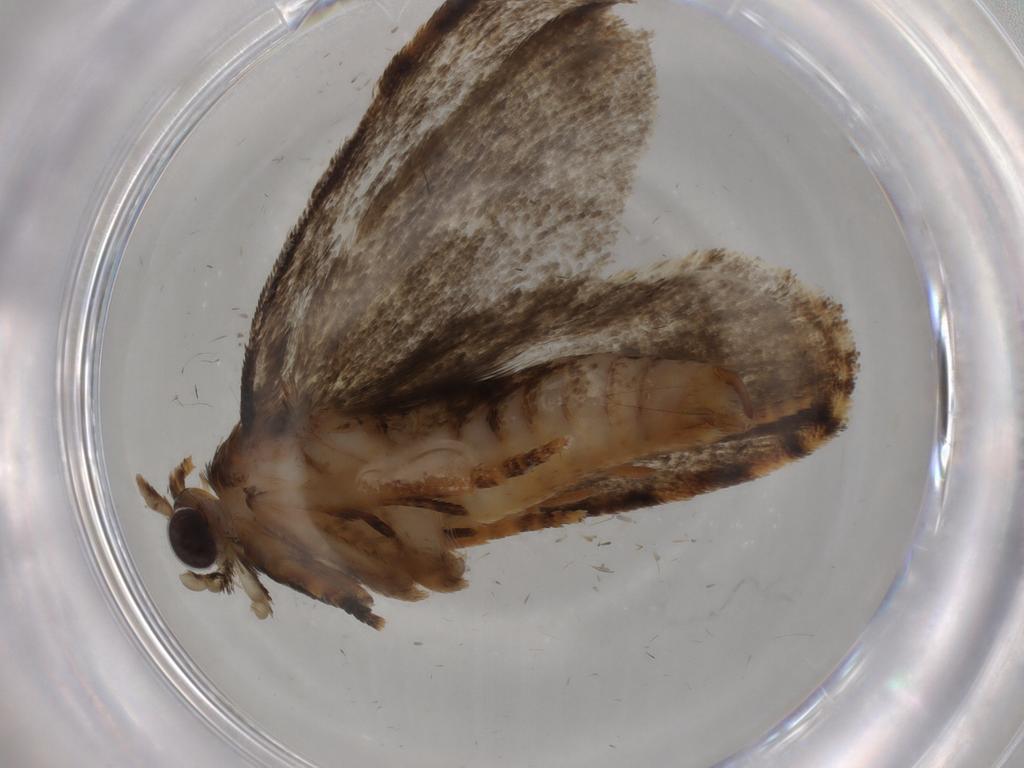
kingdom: Animalia
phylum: Arthropoda
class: Insecta
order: Lepidoptera
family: Tineidae
